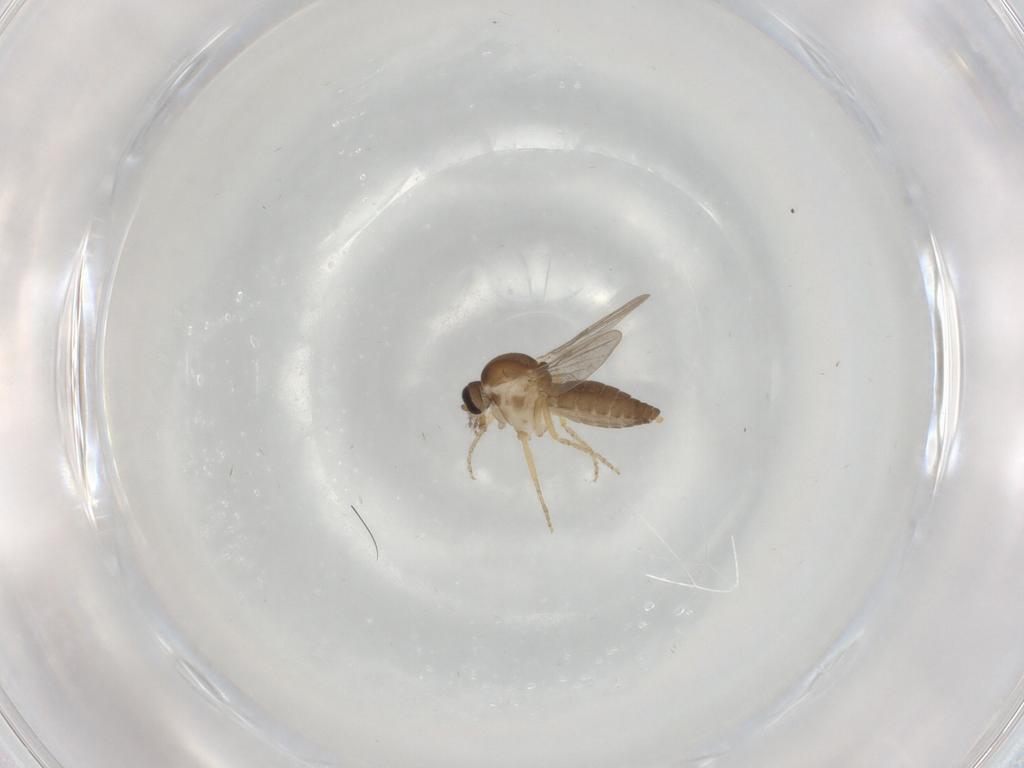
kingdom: Animalia
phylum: Arthropoda
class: Insecta
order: Diptera
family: Ceratopogonidae
